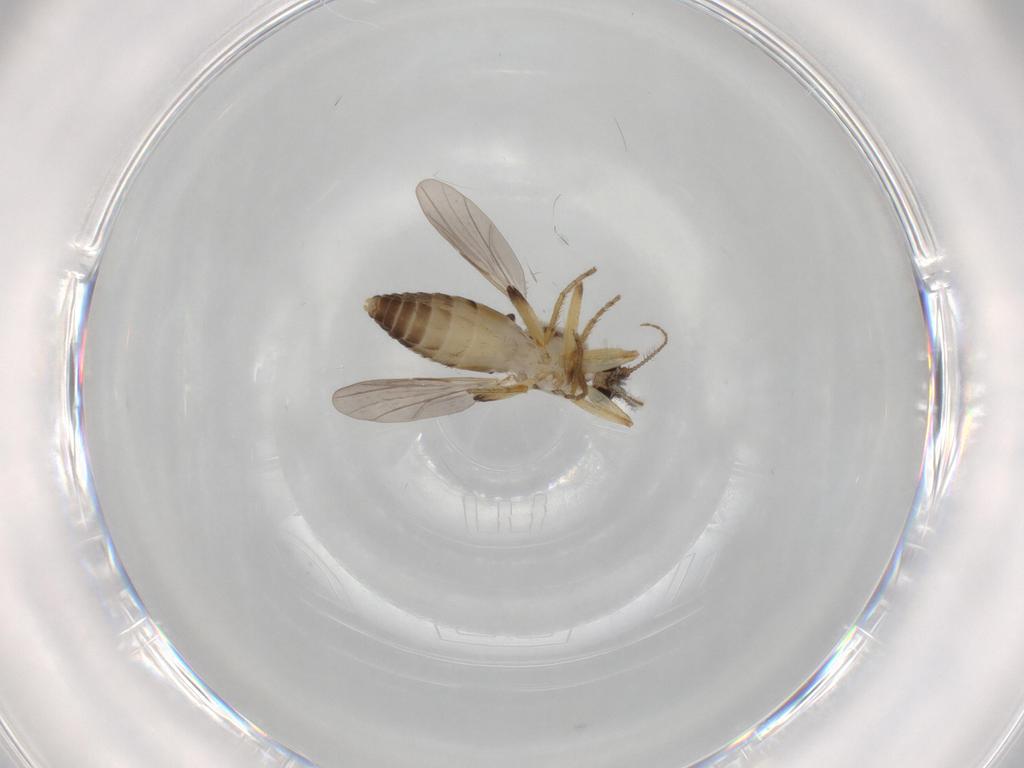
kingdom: Animalia
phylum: Arthropoda
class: Insecta
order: Diptera
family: Ceratopogonidae
